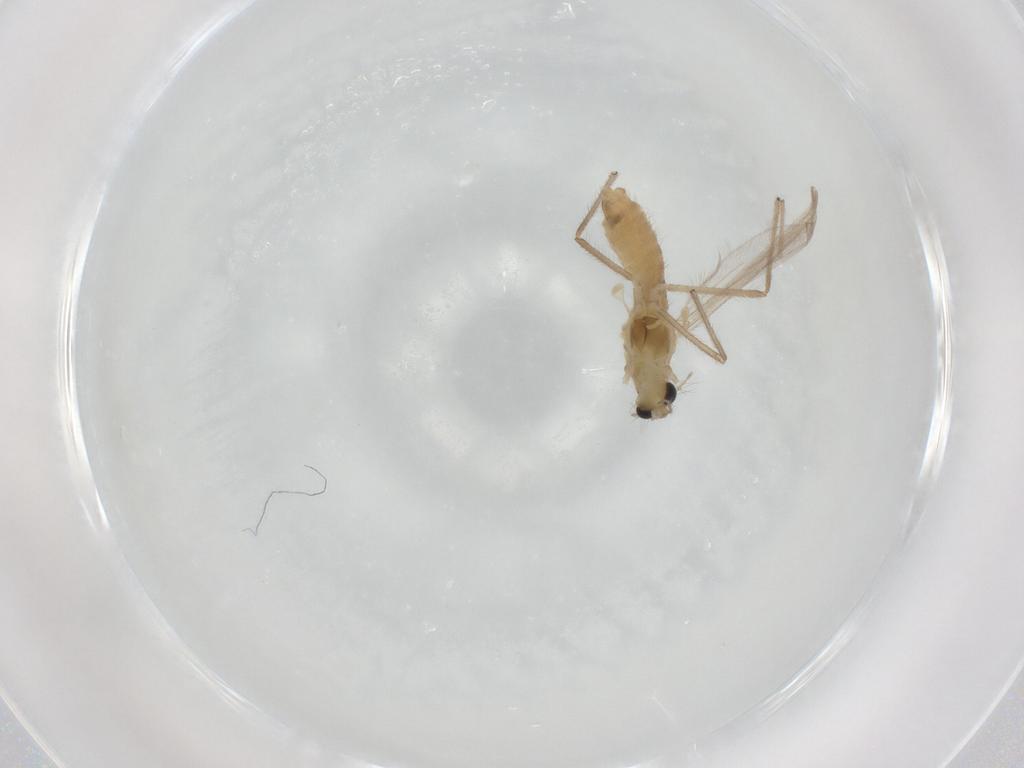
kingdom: Animalia
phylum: Arthropoda
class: Insecta
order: Diptera
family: Chironomidae
